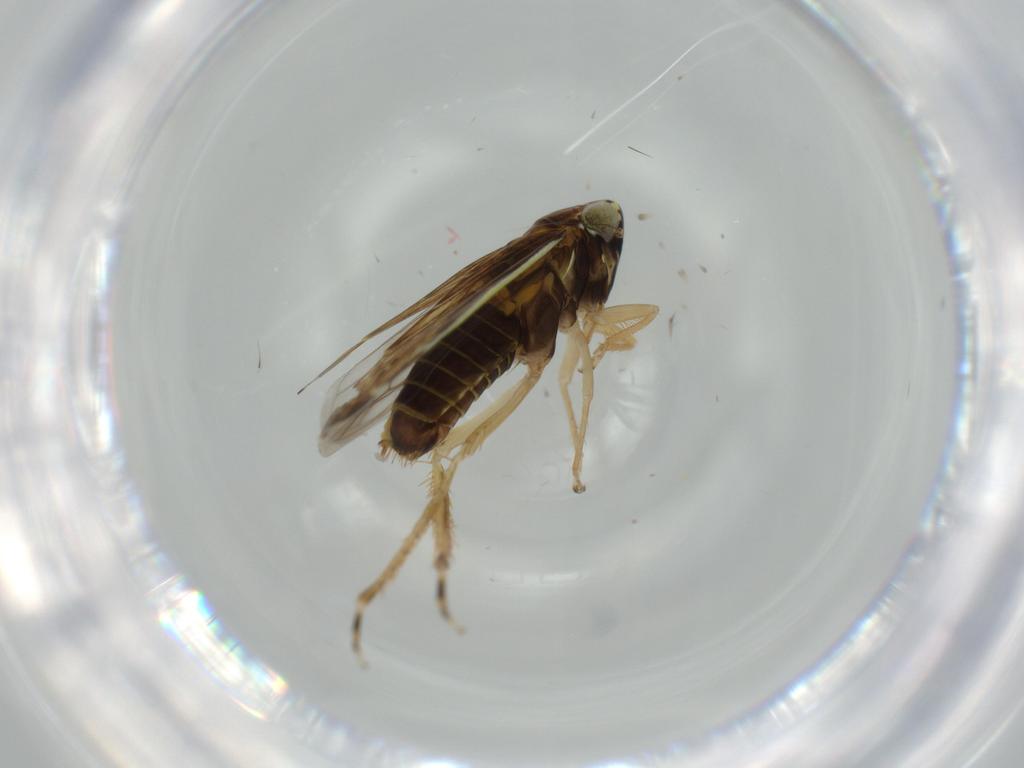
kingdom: Animalia
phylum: Arthropoda
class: Insecta
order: Hemiptera
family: Cicadellidae
